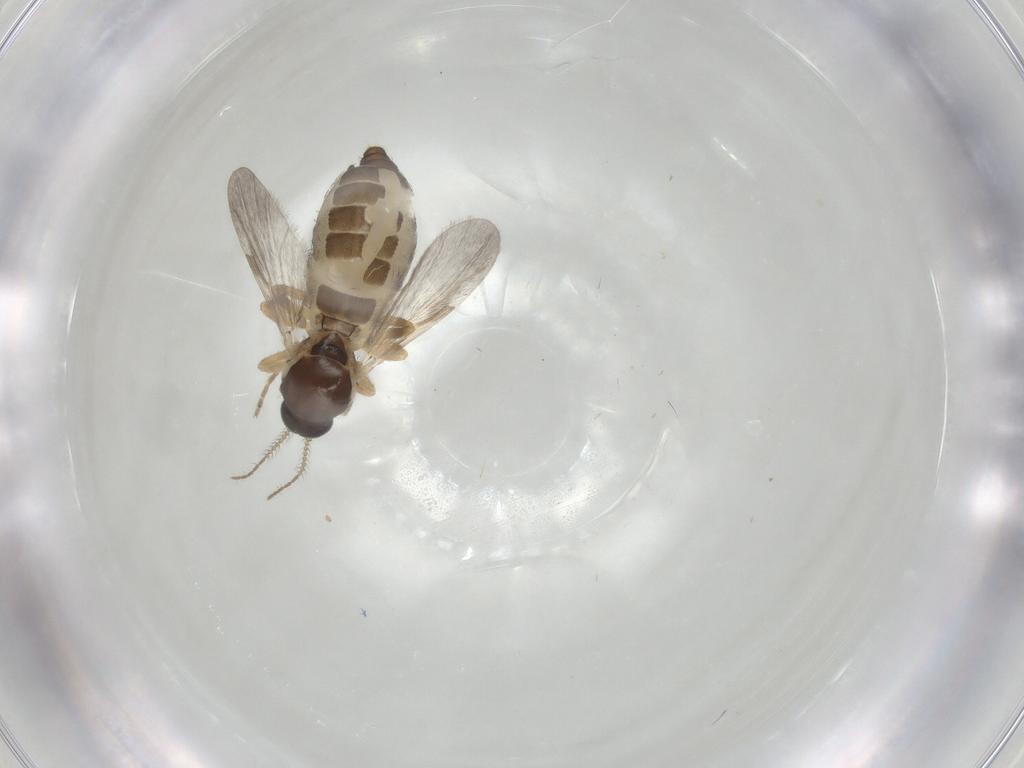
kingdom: Animalia
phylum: Arthropoda
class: Insecta
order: Diptera
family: Ceratopogonidae
